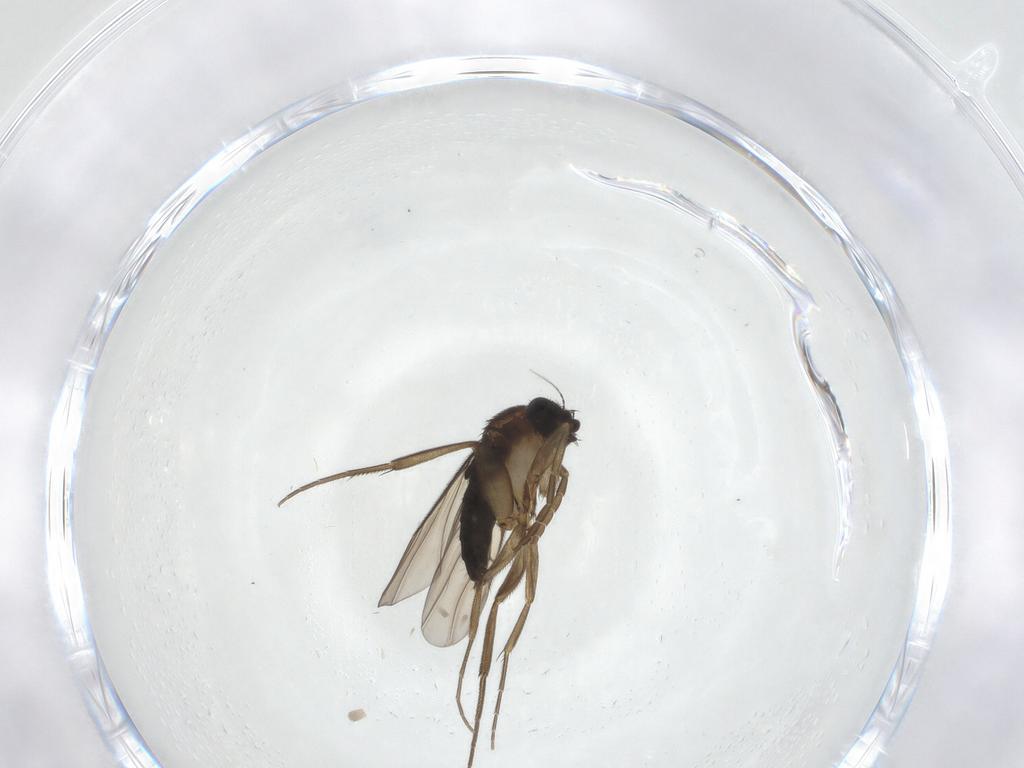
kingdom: Animalia
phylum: Arthropoda
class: Insecta
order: Diptera
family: Phoridae
